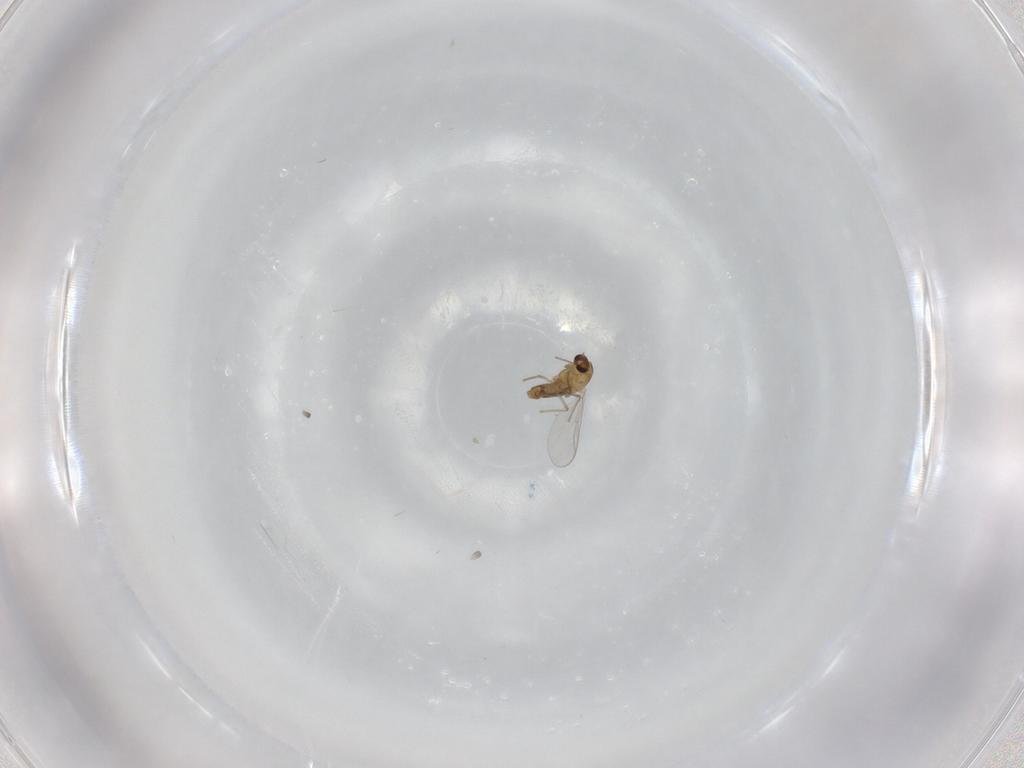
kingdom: Animalia
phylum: Arthropoda
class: Insecta
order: Diptera
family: Chironomidae
